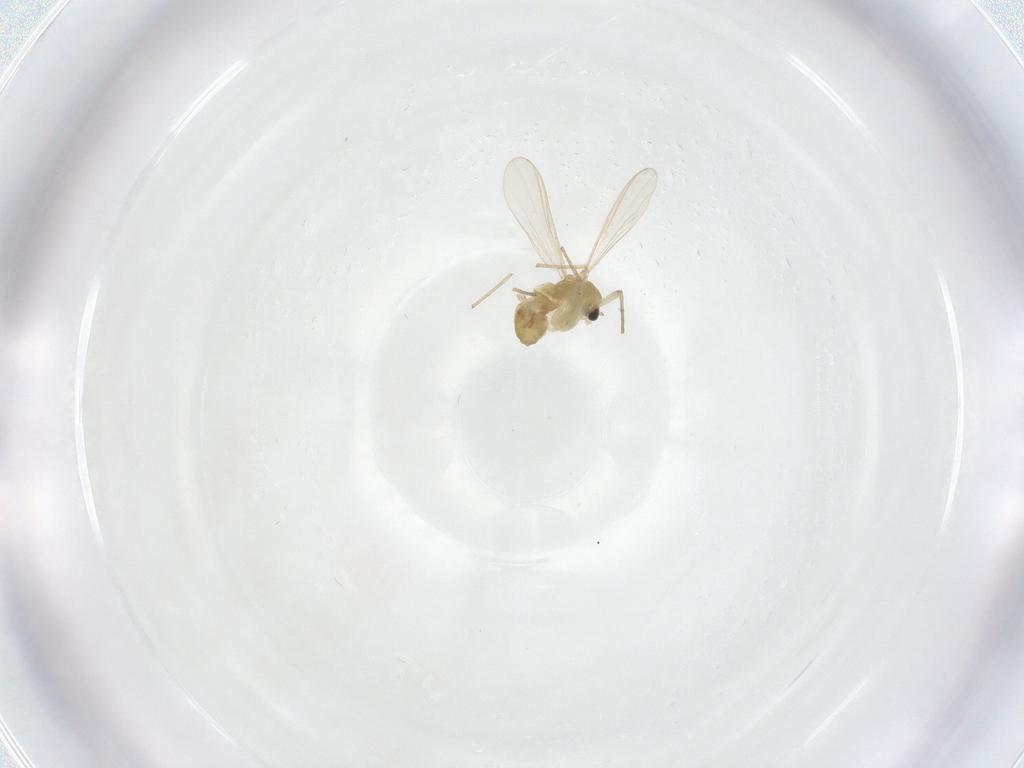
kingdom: Animalia
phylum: Arthropoda
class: Insecta
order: Diptera
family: Chironomidae
